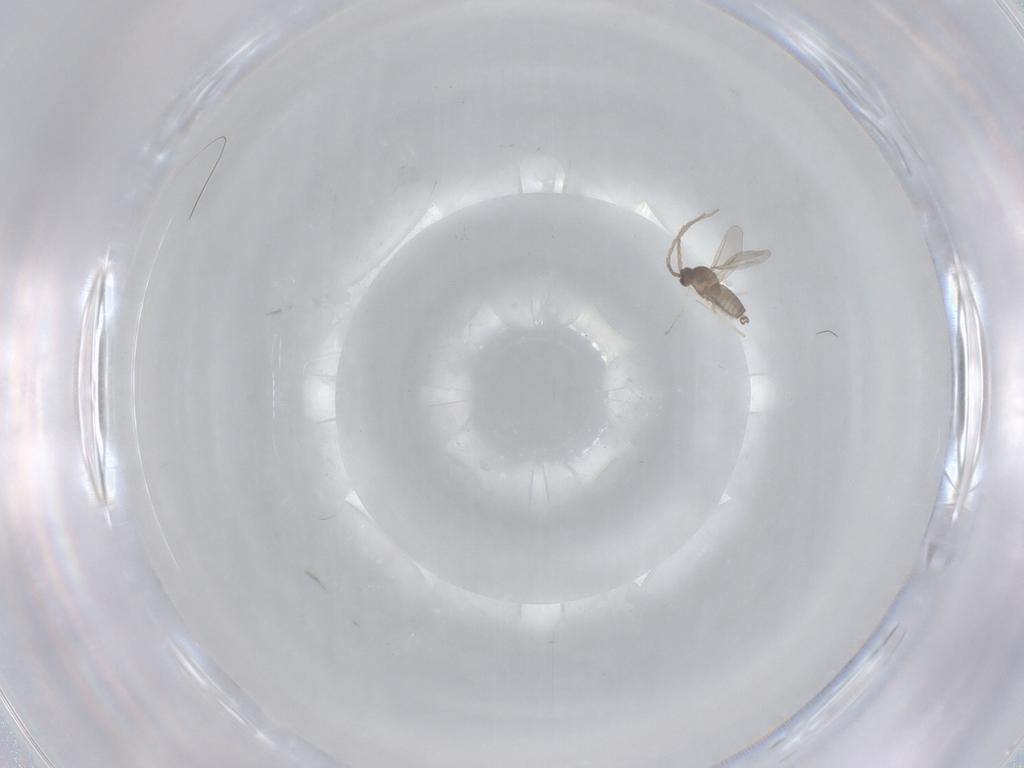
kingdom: Animalia
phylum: Arthropoda
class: Insecta
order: Diptera
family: Cecidomyiidae
